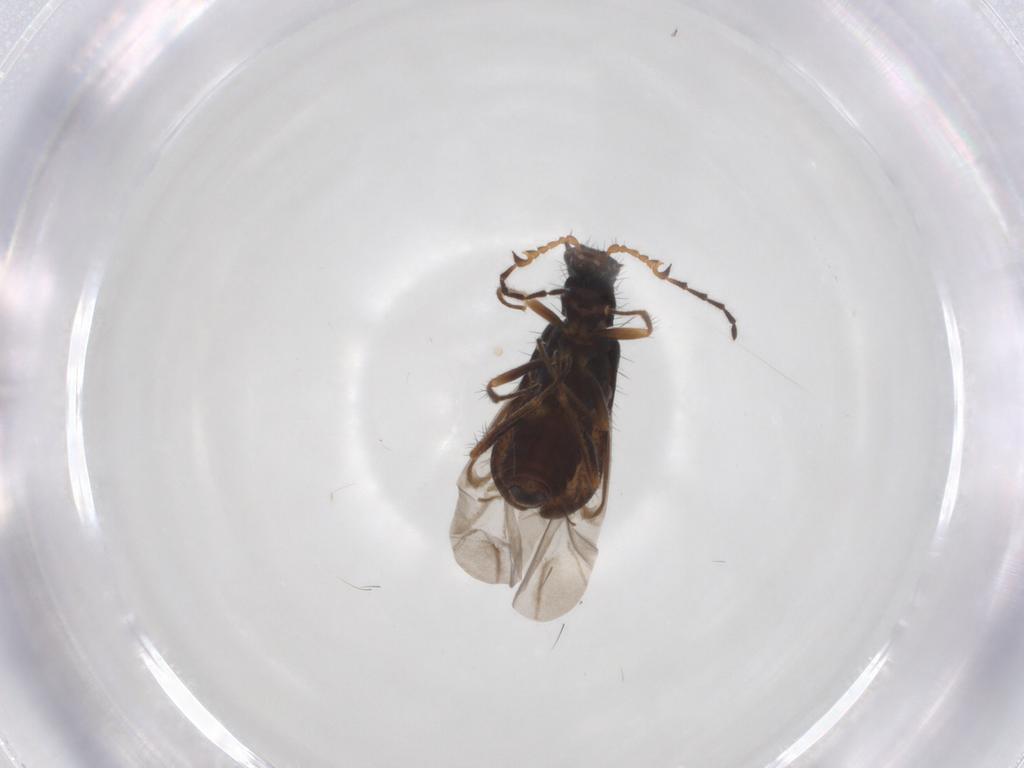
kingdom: Animalia
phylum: Arthropoda
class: Insecta
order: Coleoptera
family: Melyridae
